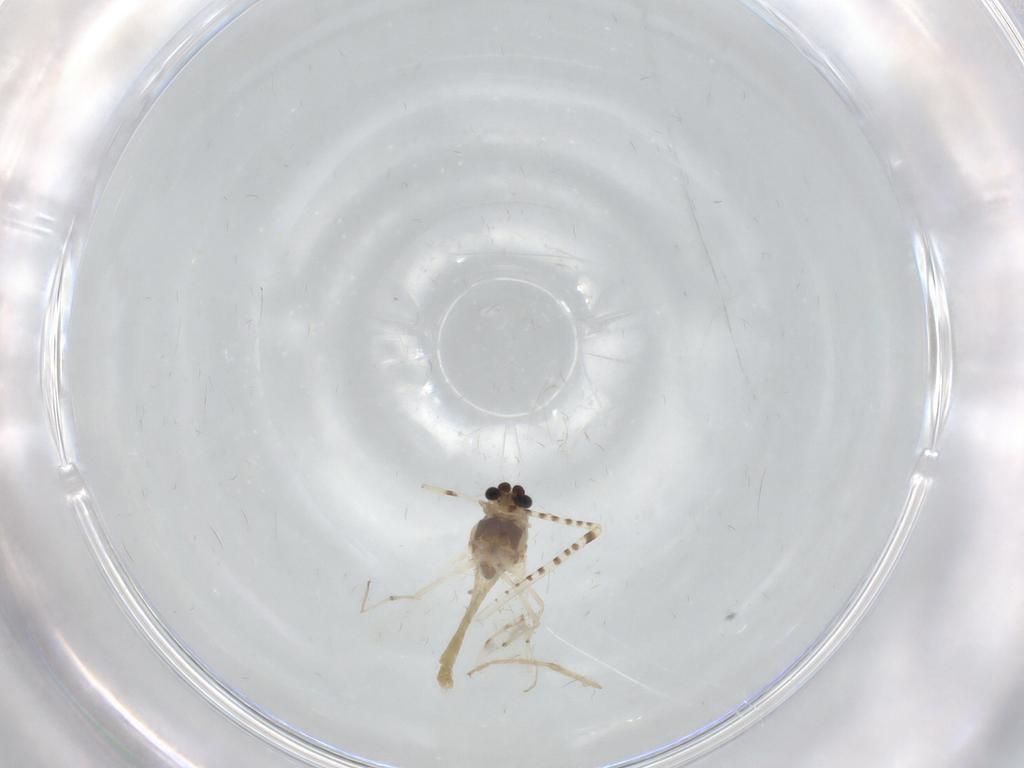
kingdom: Animalia
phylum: Arthropoda
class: Insecta
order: Diptera
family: Chironomidae
